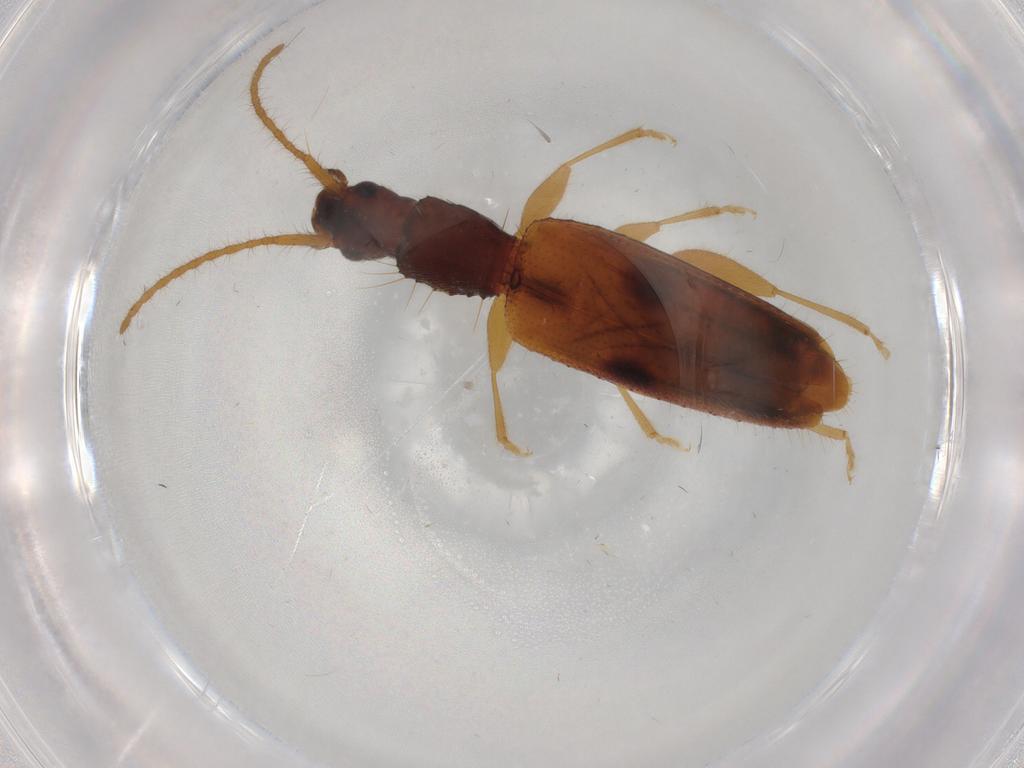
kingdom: Animalia
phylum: Arthropoda
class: Insecta
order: Coleoptera
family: Silvanidae
